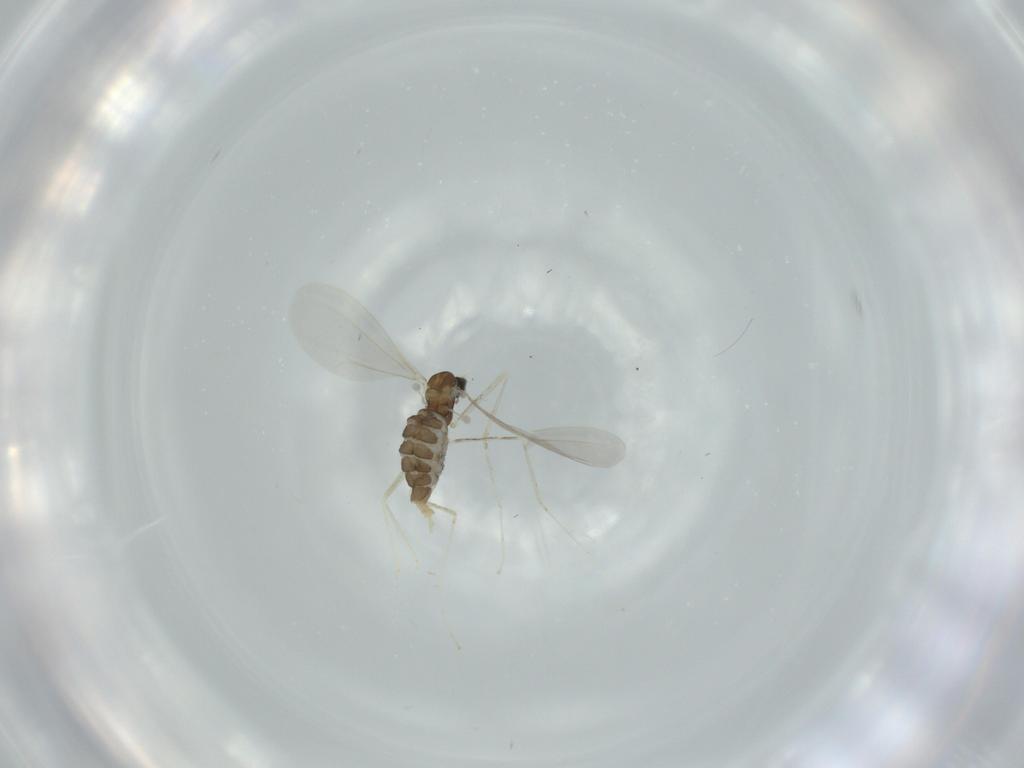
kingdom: Animalia
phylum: Arthropoda
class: Insecta
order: Diptera
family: Cecidomyiidae
